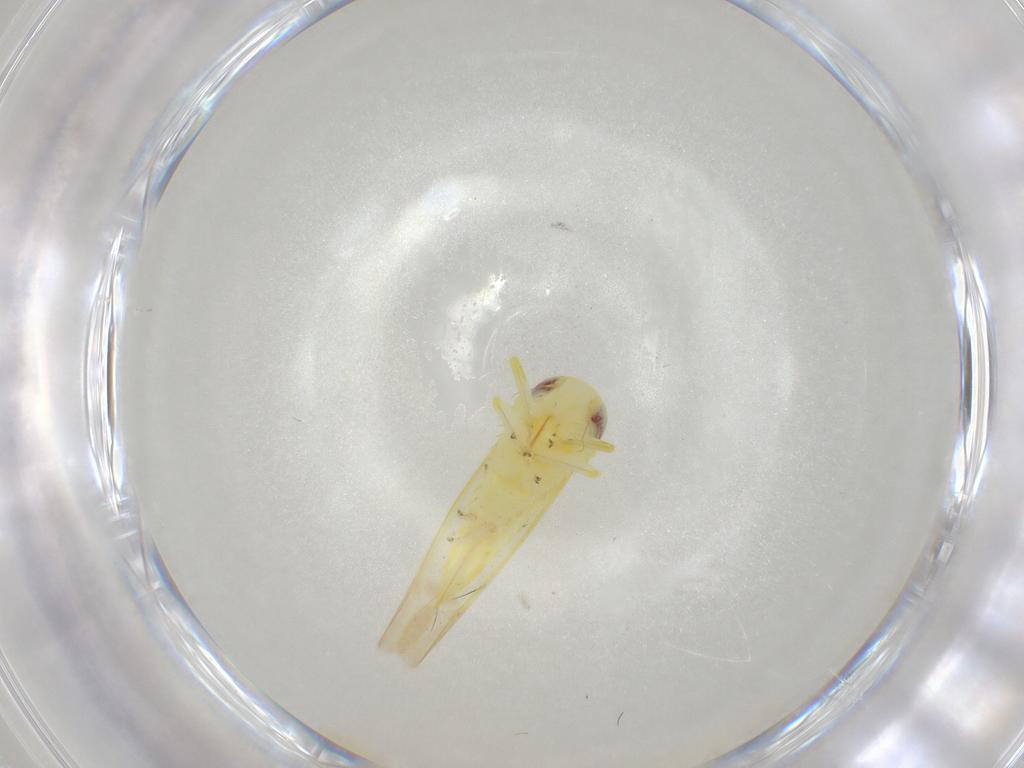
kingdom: Animalia
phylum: Arthropoda
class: Insecta
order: Hemiptera
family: Cicadellidae
